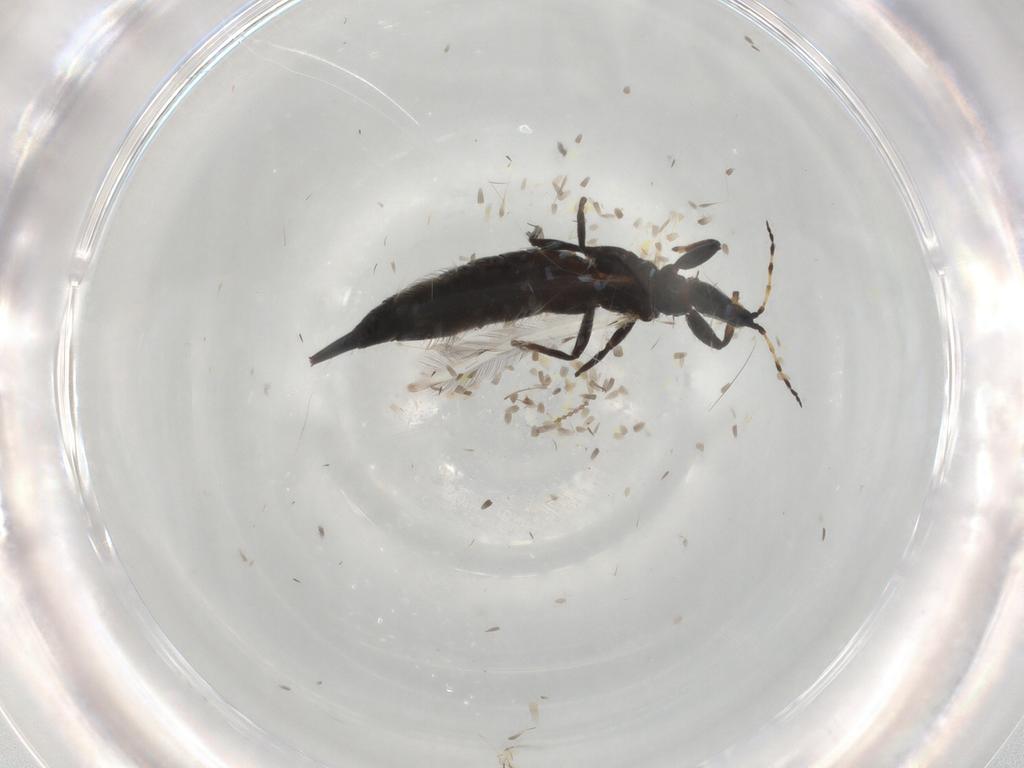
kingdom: Animalia
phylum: Arthropoda
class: Insecta
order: Thysanoptera
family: Phlaeothripidae
